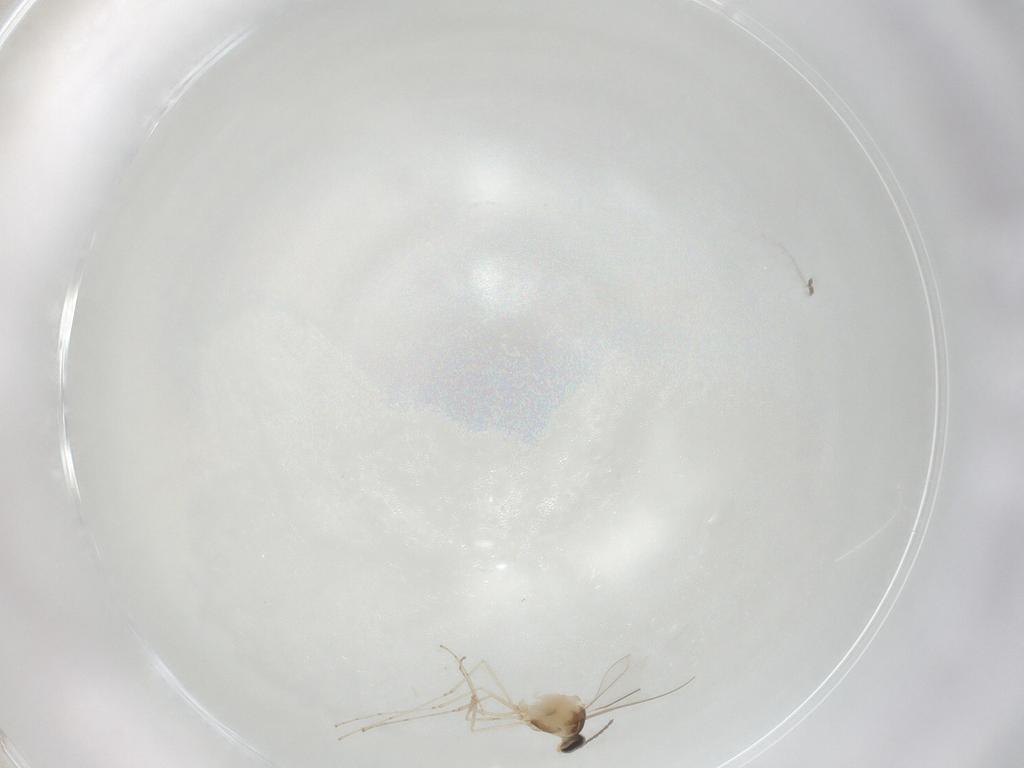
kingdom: Animalia
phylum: Arthropoda
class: Insecta
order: Diptera
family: Cecidomyiidae
